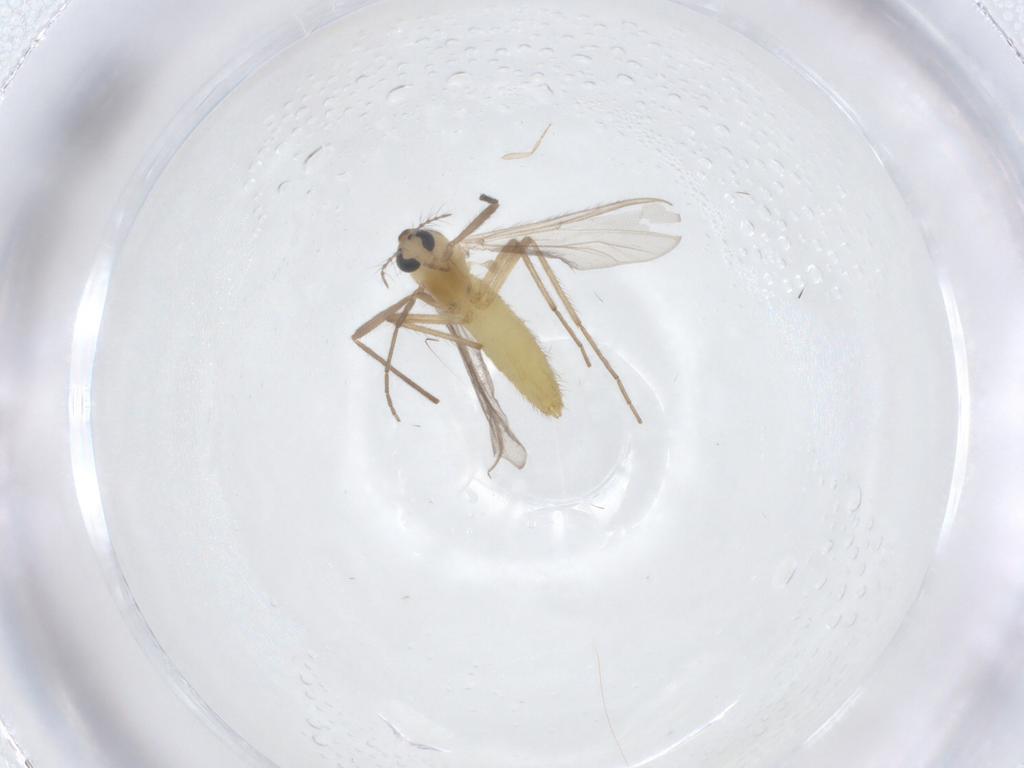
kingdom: Animalia
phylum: Arthropoda
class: Insecta
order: Diptera
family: Chironomidae
